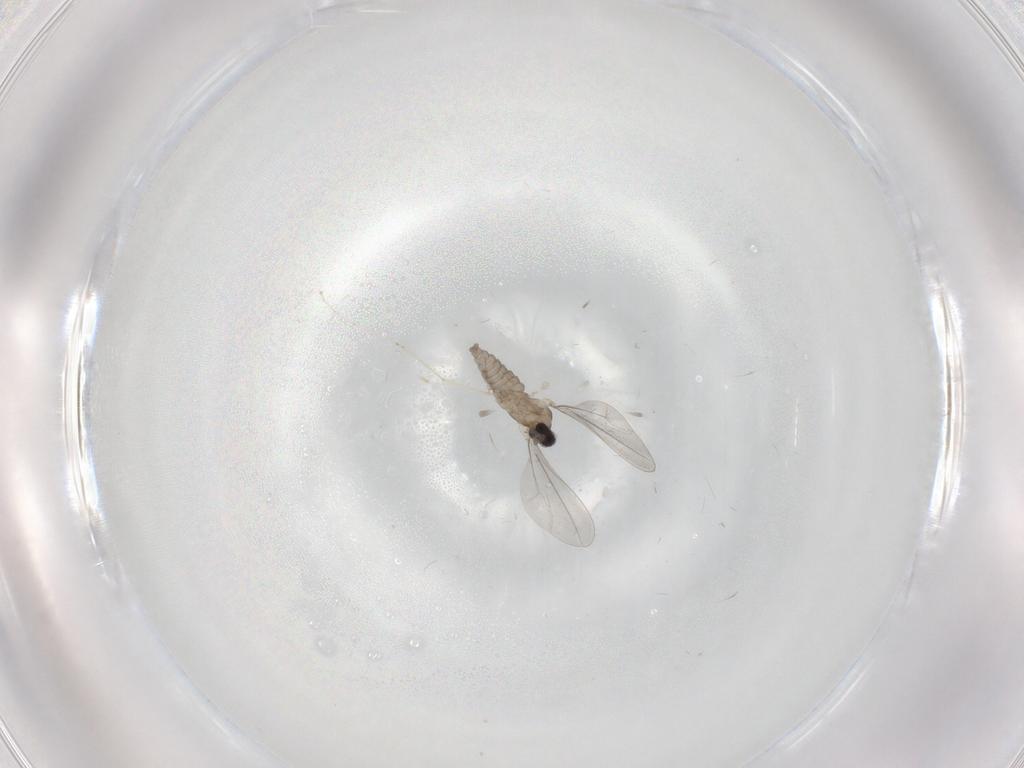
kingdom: Animalia
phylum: Arthropoda
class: Insecta
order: Diptera
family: Cecidomyiidae
